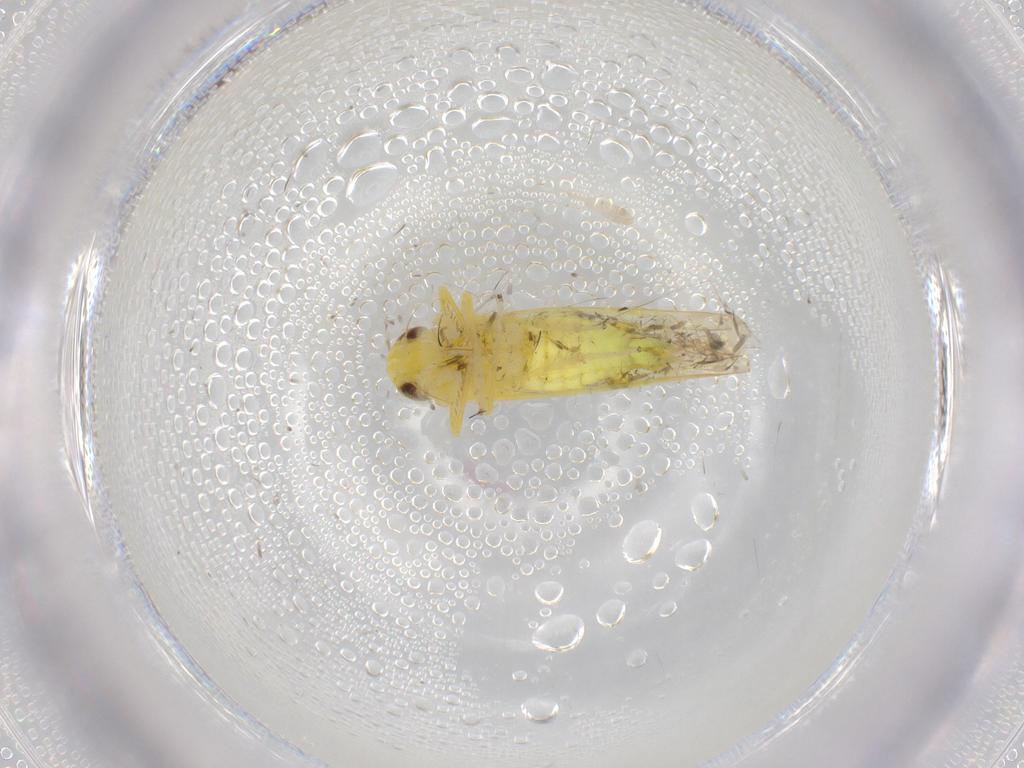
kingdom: Animalia
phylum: Arthropoda
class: Insecta
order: Hemiptera
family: Cicadellidae
